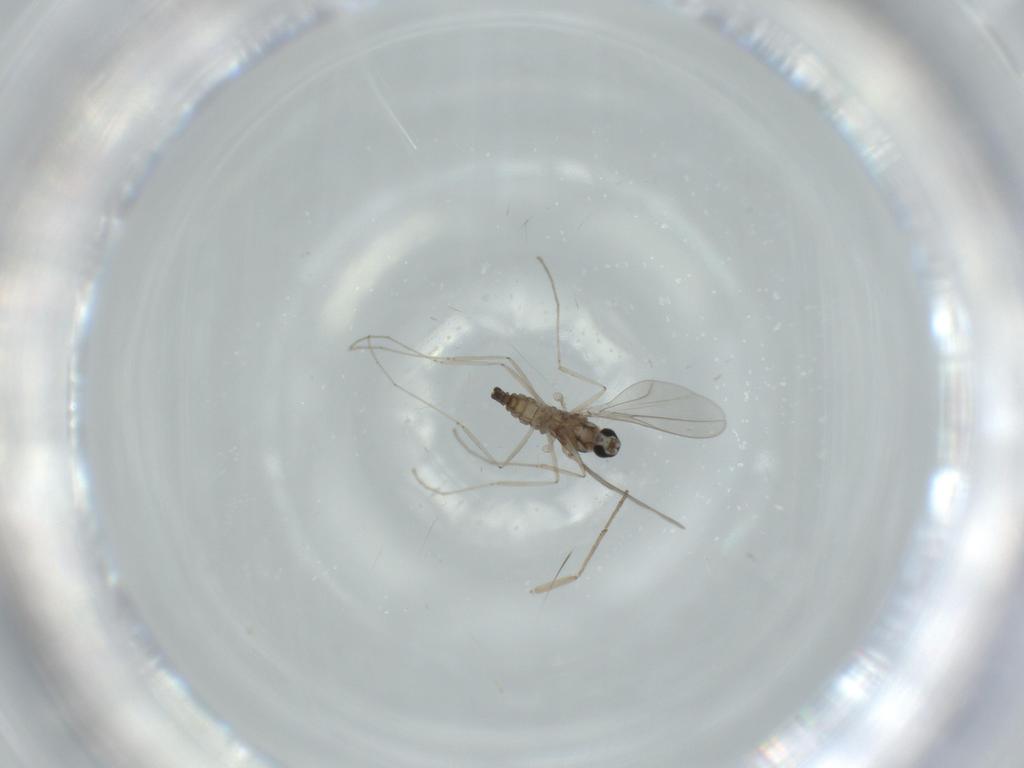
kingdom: Animalia
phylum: Arthropoda
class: Insecta
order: Diptera
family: Cecidomyiidae
